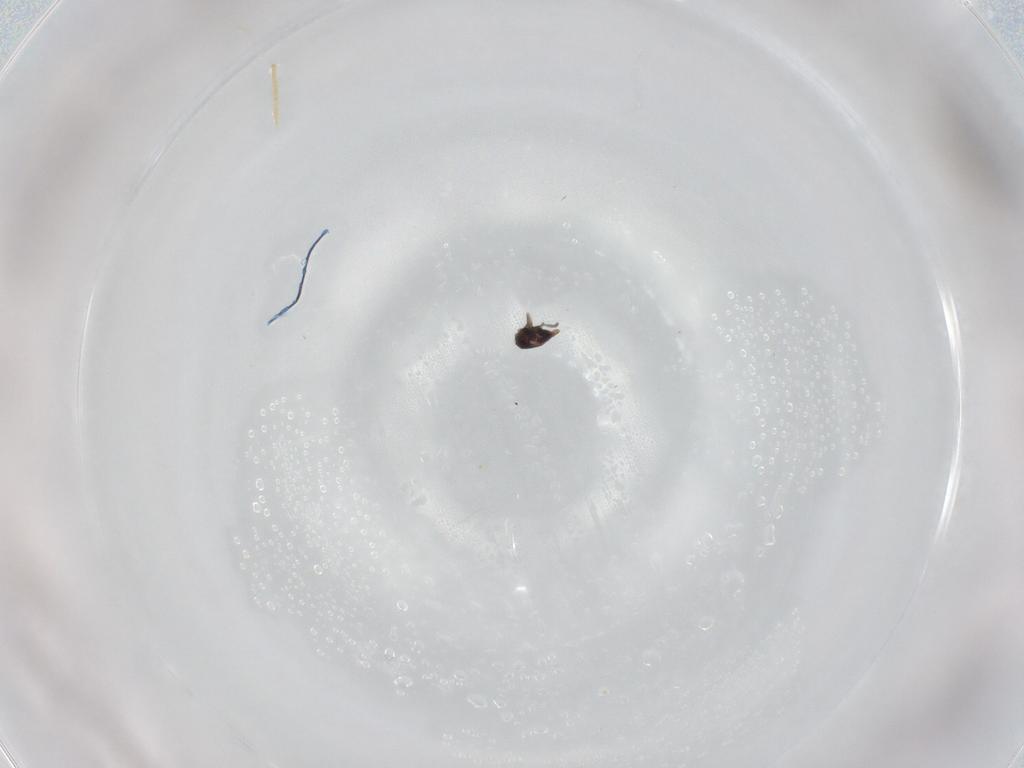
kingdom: Animalia
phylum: Arthropoda
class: Insecta
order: Diptera
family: Psychodidae
